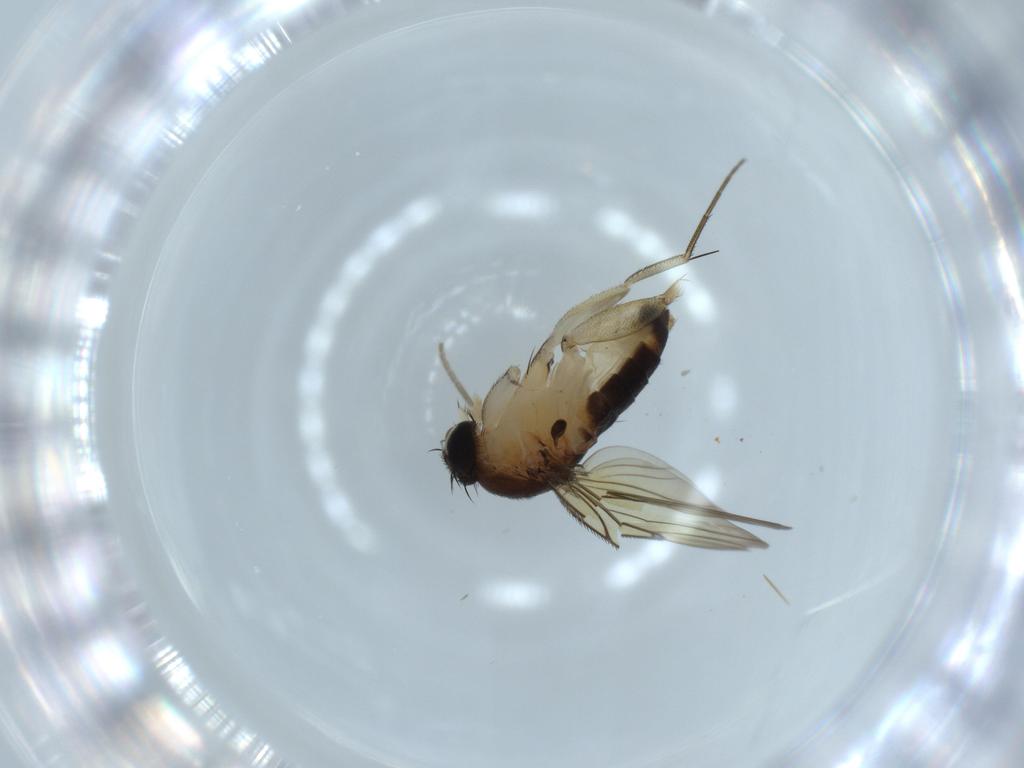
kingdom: Animalia
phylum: Arthropoda
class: Insecta
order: Diptera
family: Phoridae
